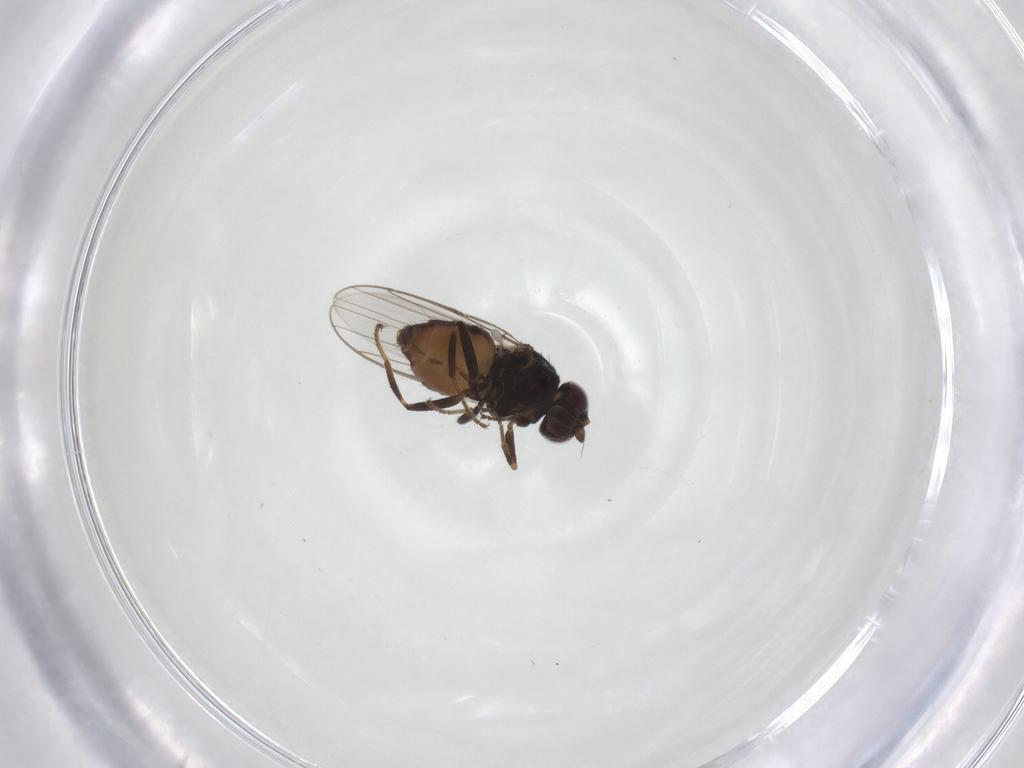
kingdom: Animalia
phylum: Arthropoda
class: Insecta
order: Diptera
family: Chloropidae
